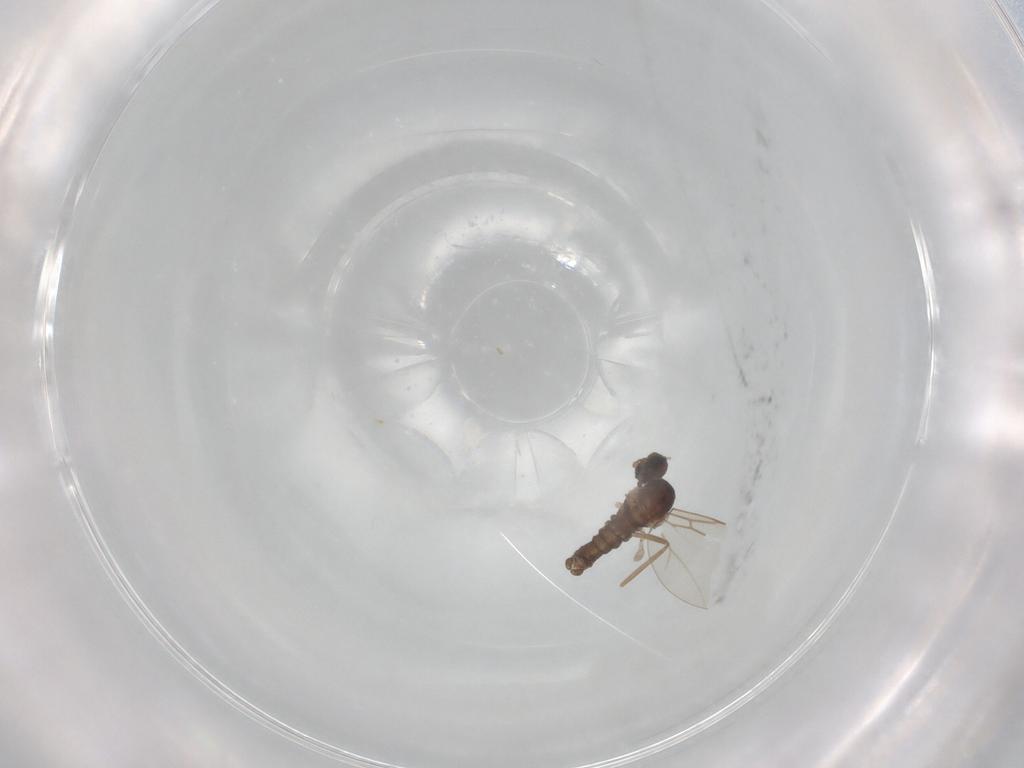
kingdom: Animalia
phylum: Arthropoda
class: Insecta
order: Diptera
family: Cecidomyiidae
